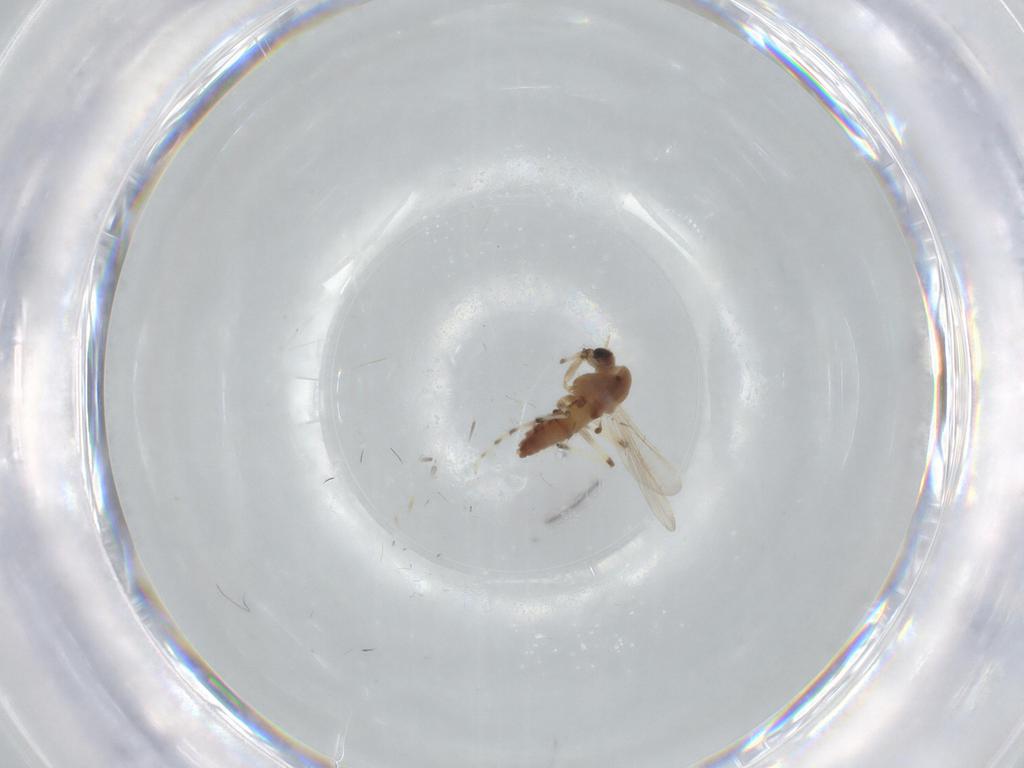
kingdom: Animalia
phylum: Arthropoda
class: Insecta
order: Diptera
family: Chironomidae
